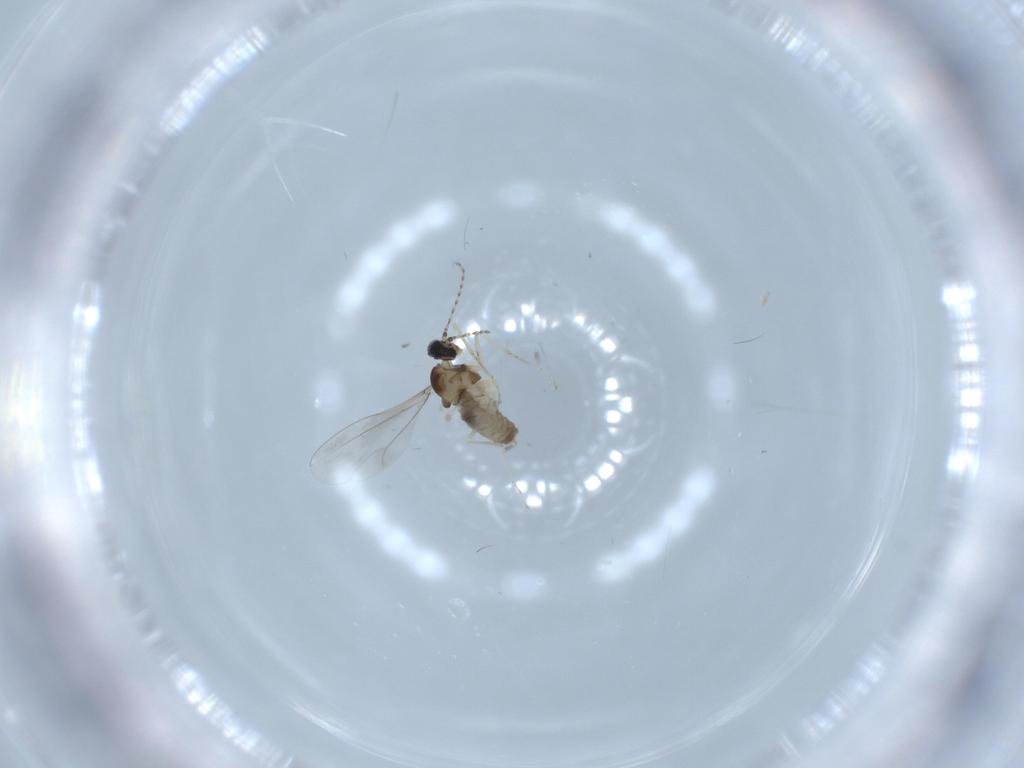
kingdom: Animalia
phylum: Arthropoda
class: Insecta
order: Diptera
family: Cecidomyiidae
